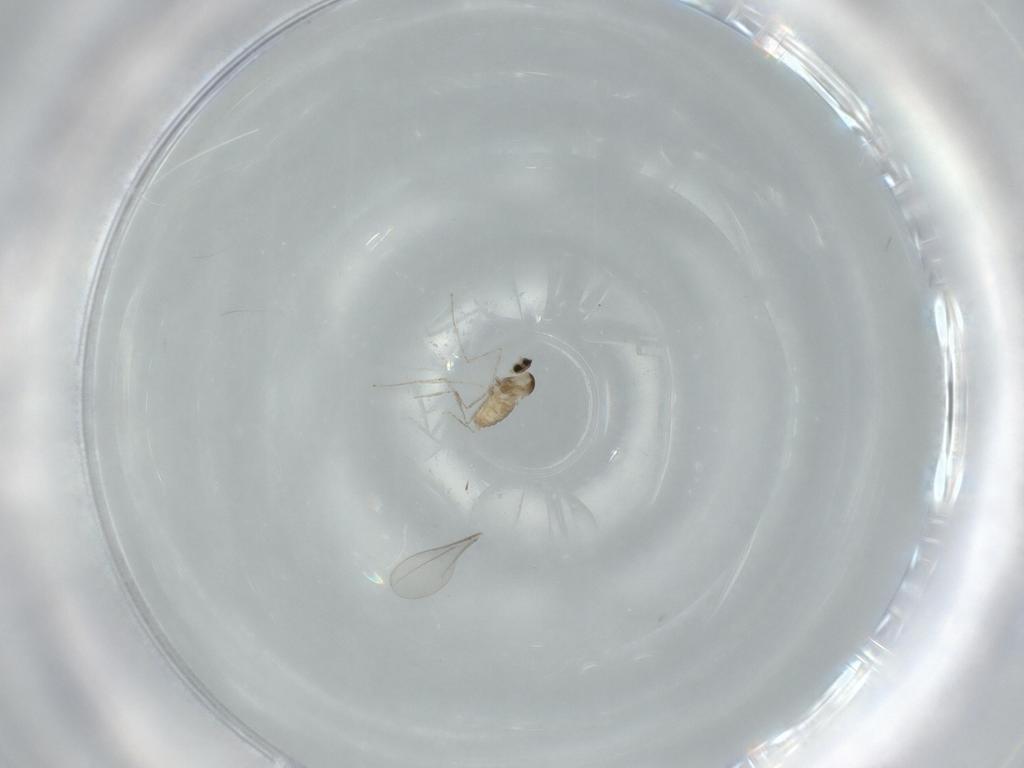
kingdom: Animalia
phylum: Arthropoda
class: Insecta
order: Diptera
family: Cecidomyiidae
